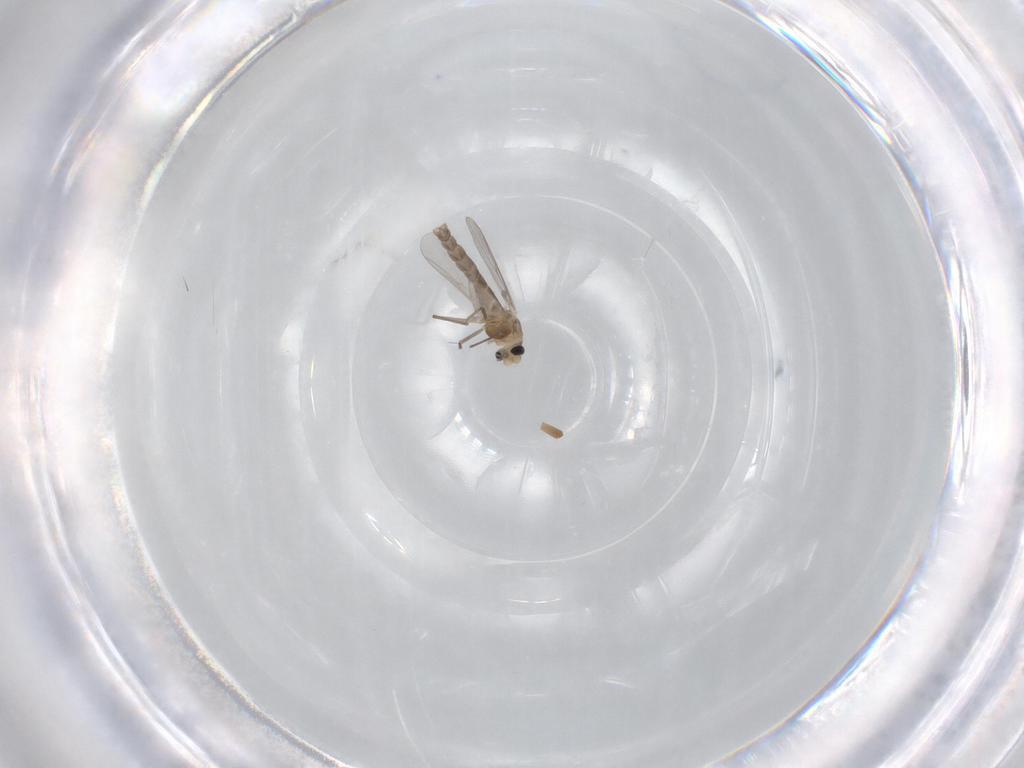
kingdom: Animalia
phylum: Arthropoda
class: Insecta
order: Diptera
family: Chironomidae
